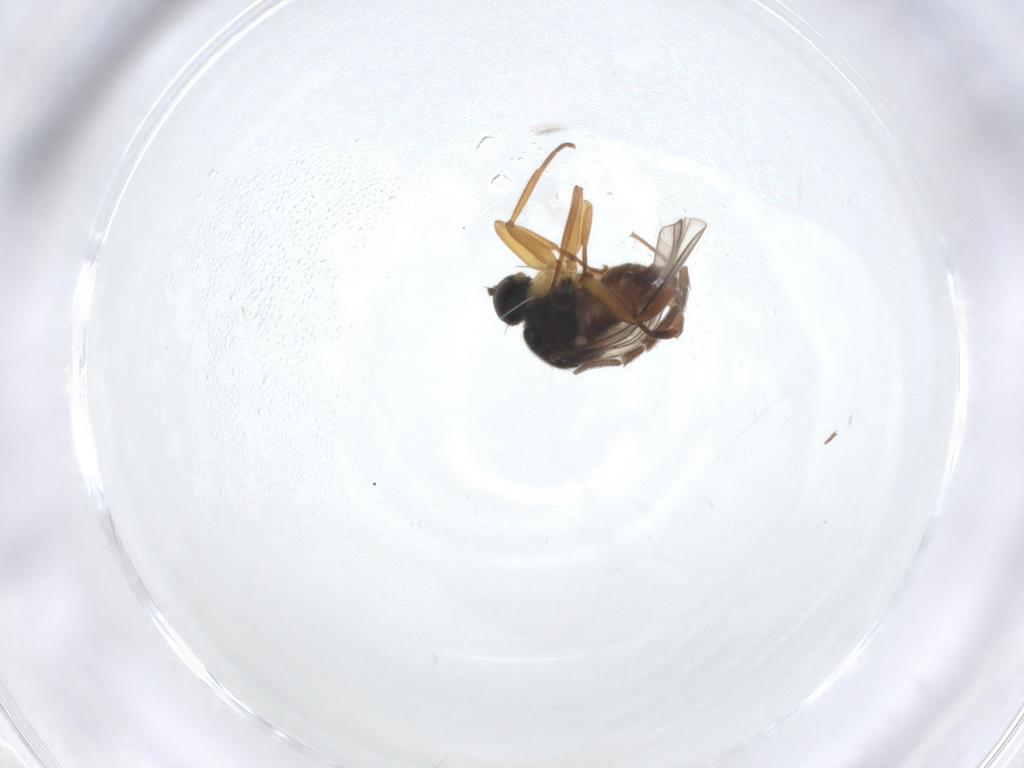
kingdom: Animalia
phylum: Arthropoda
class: Insecta
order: Diptera
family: Hybotidae
